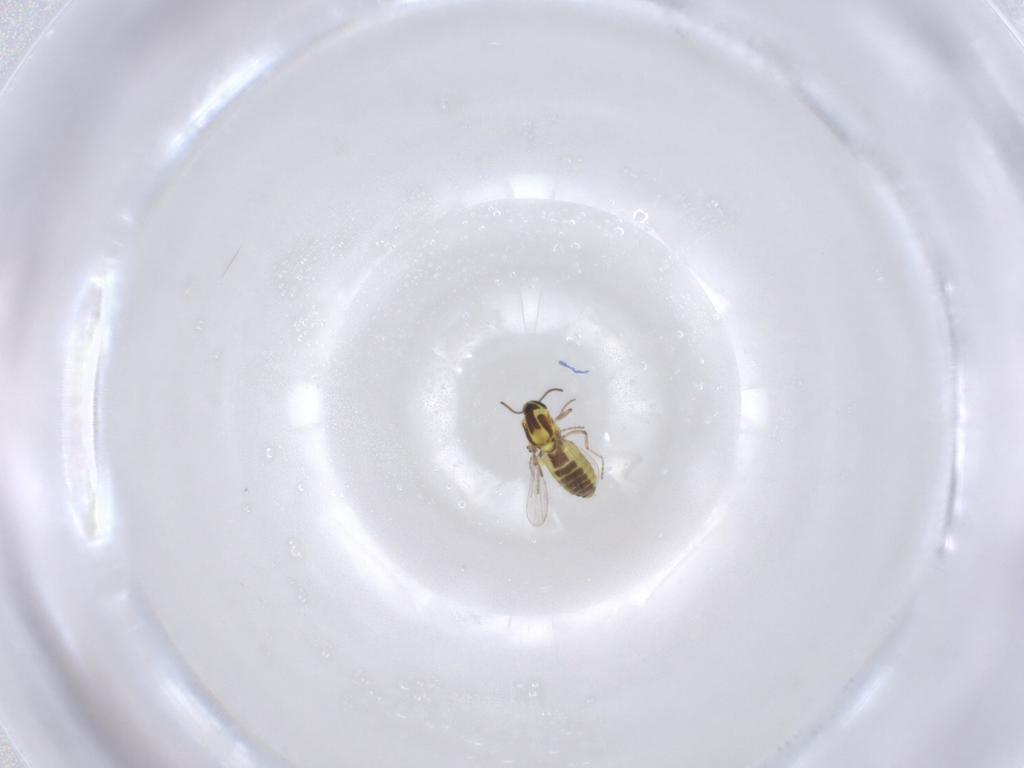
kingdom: Animalia
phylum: Arthropoda
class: Insecta
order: Diptera
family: Ceratopogonidae
